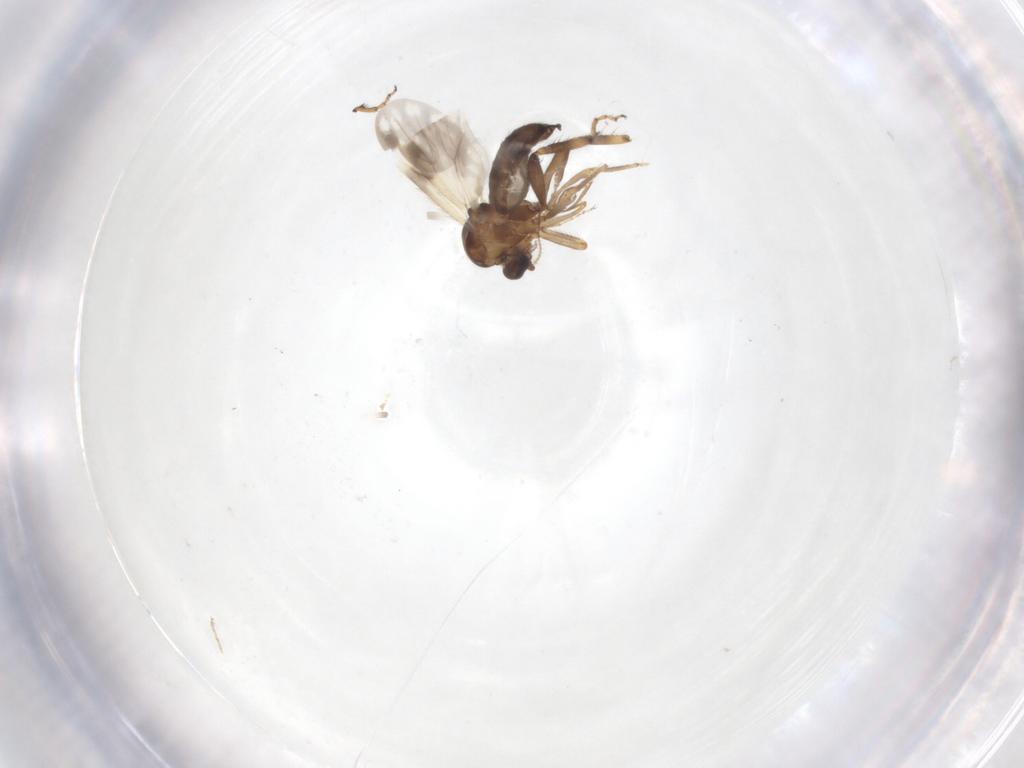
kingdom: Animalia
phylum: Arthropoda
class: Insecta
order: Diptera
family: Ceratopogonidae
